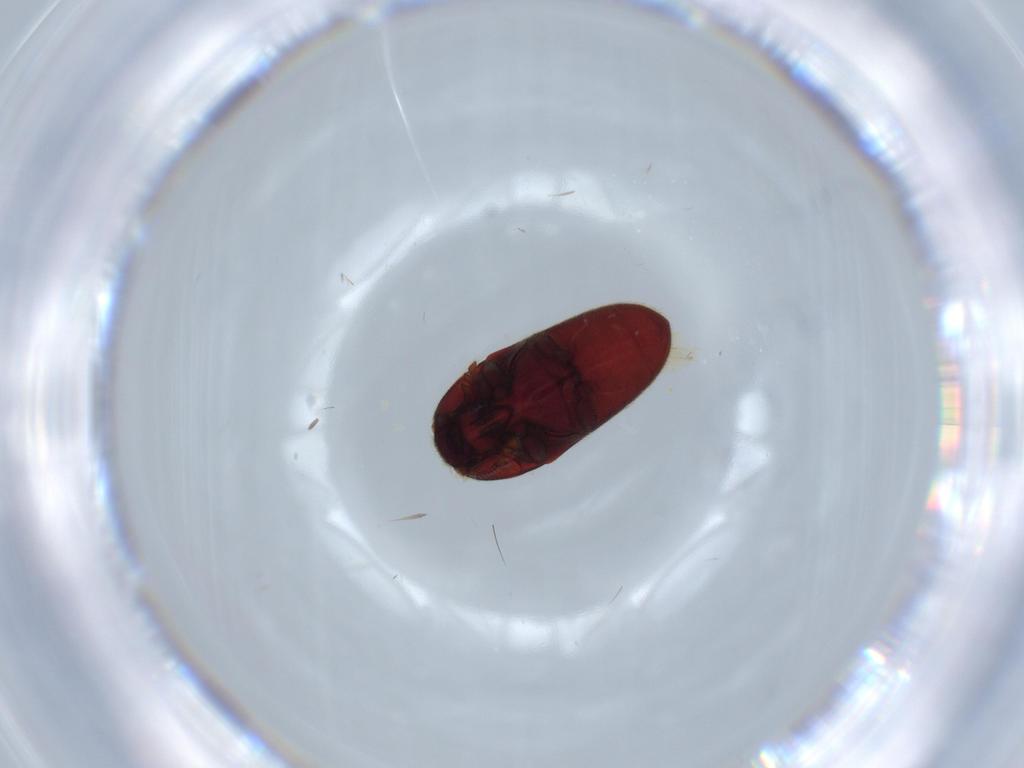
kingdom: Animalia
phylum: Arthropoda
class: Insecta
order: Coleoptera
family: Throscidae
